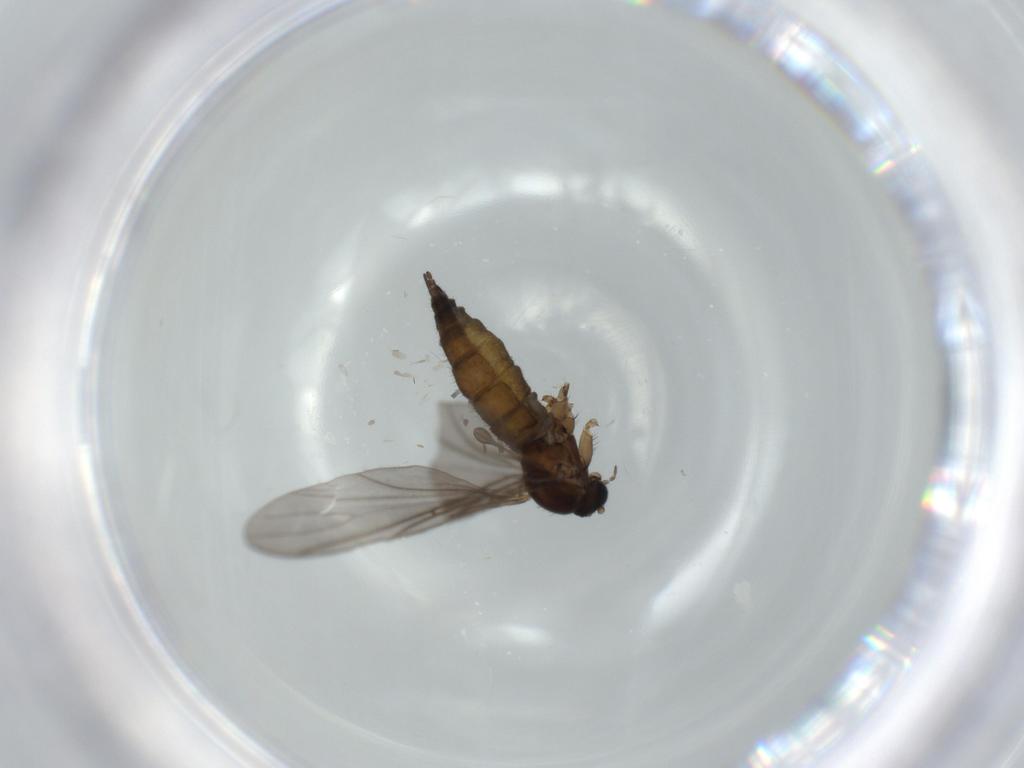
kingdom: Animalia
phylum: Arthropoda
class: Insecta
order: Diptera
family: Sciaridae
